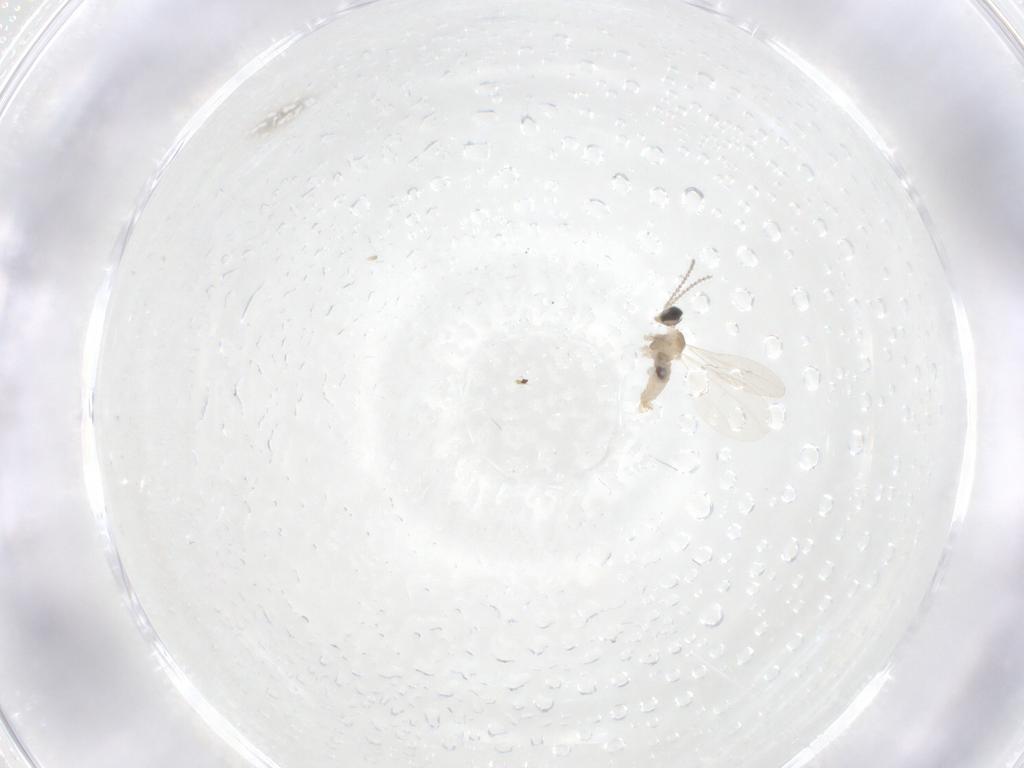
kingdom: Animalia
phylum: Arthropoda
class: Insecta
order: Diptera
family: Cecidomyiidae
